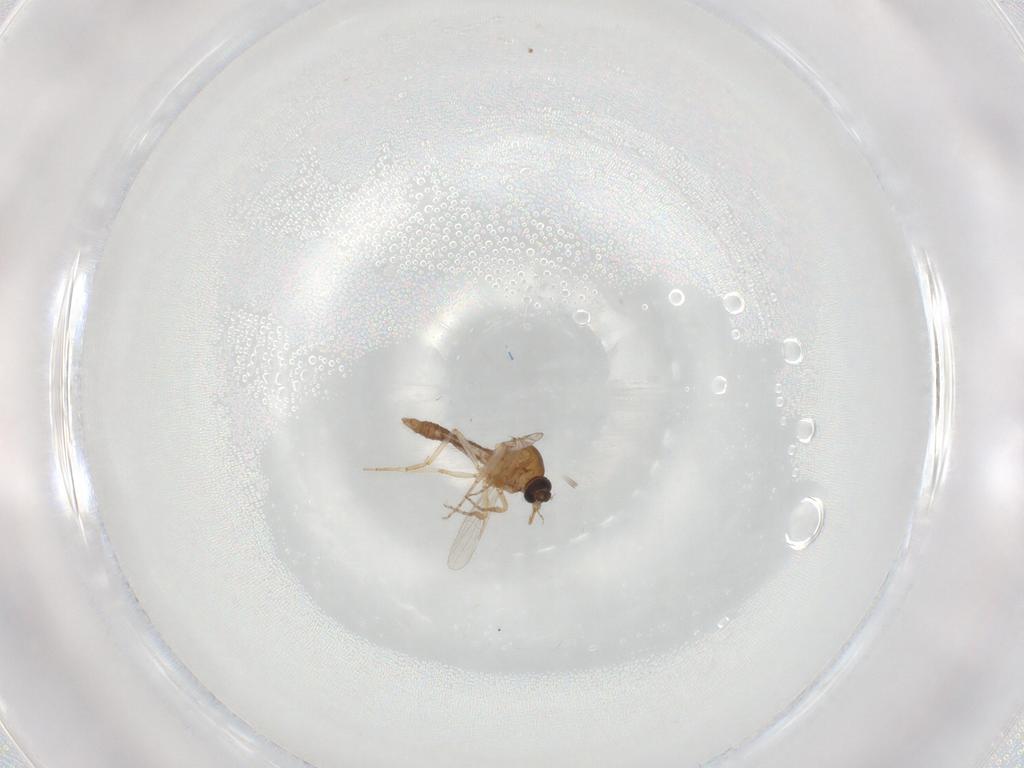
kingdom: Animalia
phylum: Arthropoda
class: Insecta
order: Diptera
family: Ceratopogonidae
